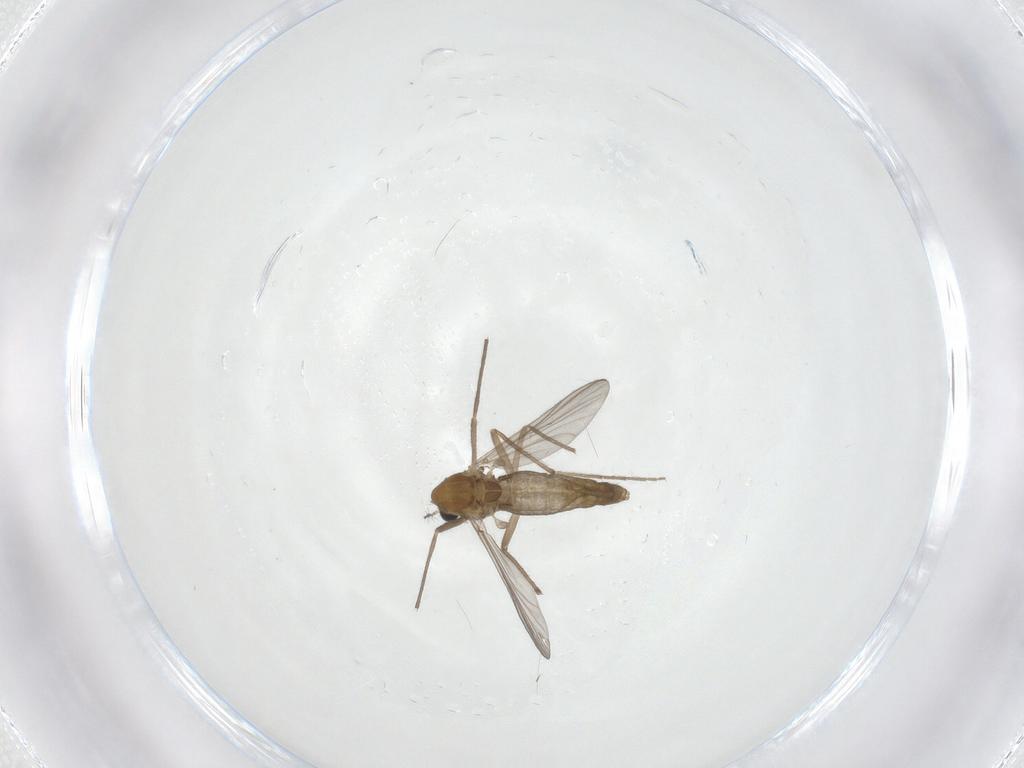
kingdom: Animalia
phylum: Arthropoda
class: Insecta
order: Diptera
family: Chironomidae
